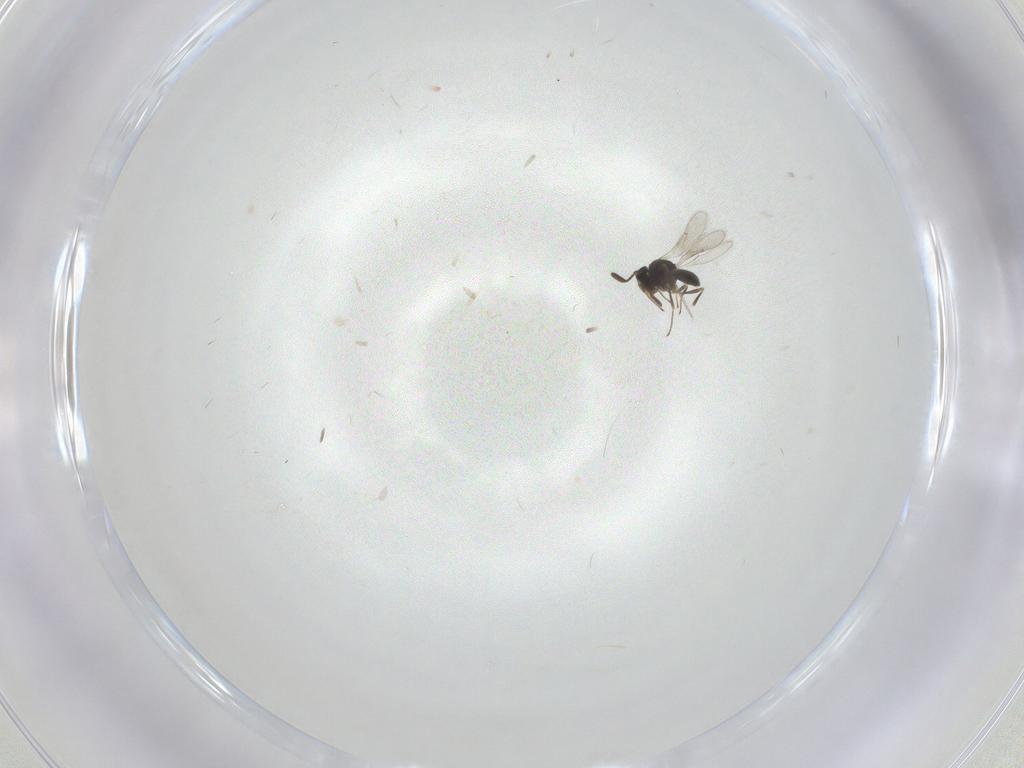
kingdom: Animalia
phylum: Arthropoda
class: Insecta
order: Hymenoptera
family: Scelionidae
